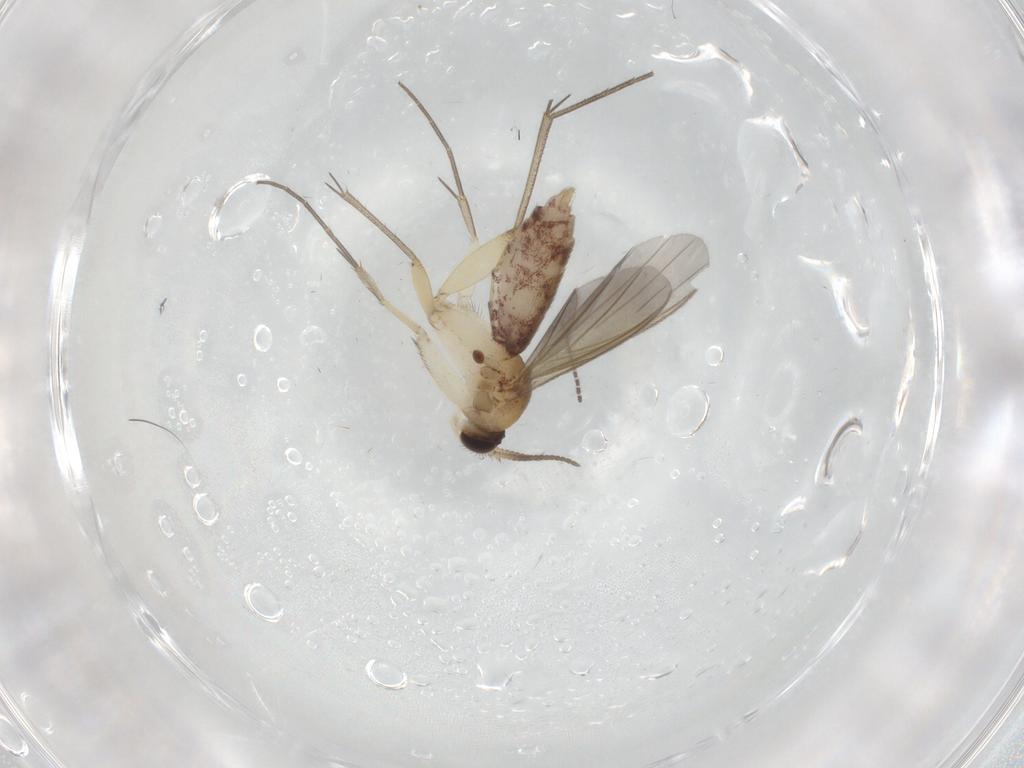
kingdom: Animalia
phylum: Arthropoda
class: Insecta
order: Diptera
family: Mycetophilidae
